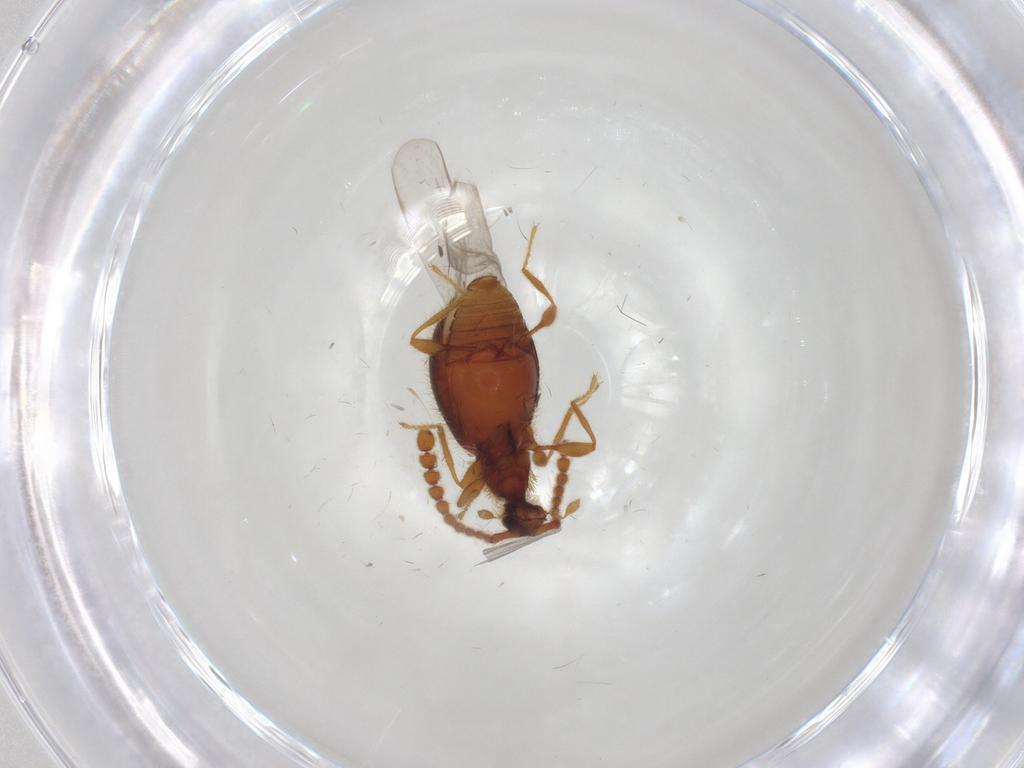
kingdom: Animalia
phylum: Arthropoda
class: Insecta
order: Coleoptera
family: Staphylinidae
